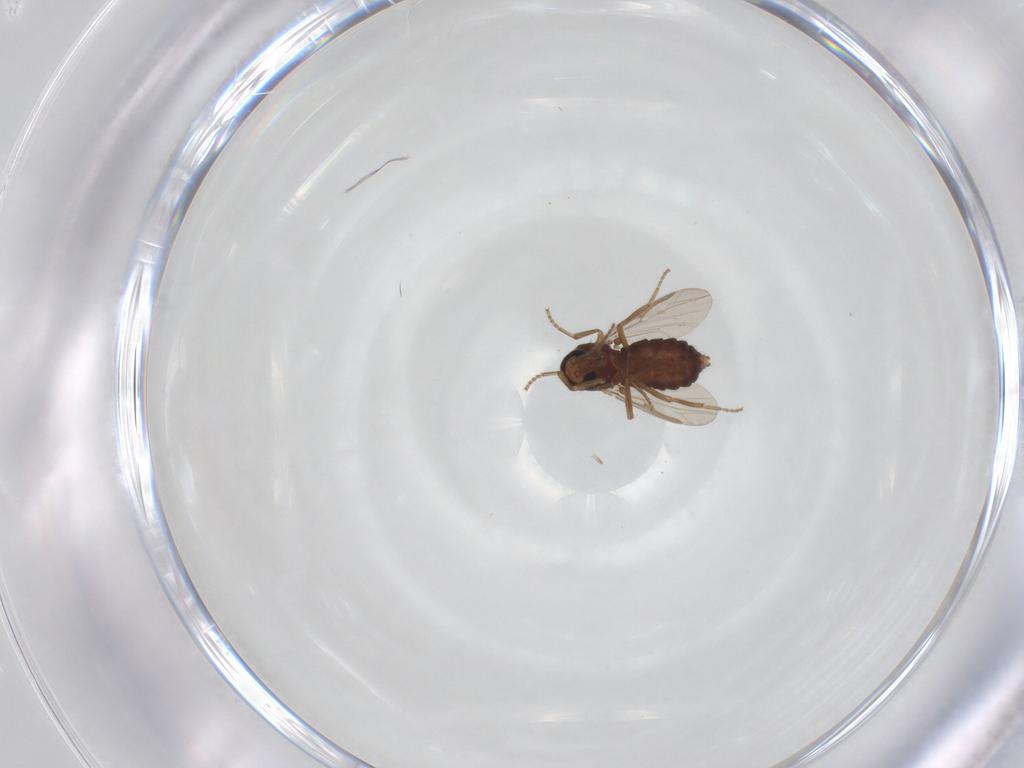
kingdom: Animalia
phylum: Arthropoda
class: Insecta
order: Diptera
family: Ceratopogonidae
